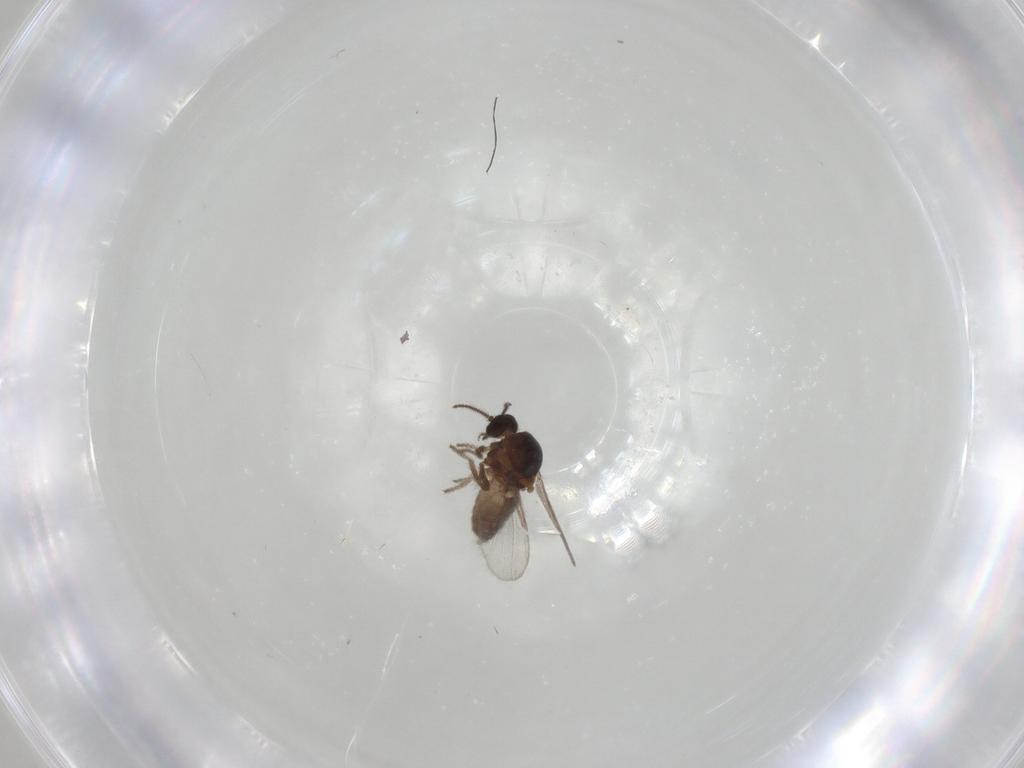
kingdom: Animalia
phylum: Arthropoda
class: Insecta
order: Diptera
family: Ceratopogonidae
